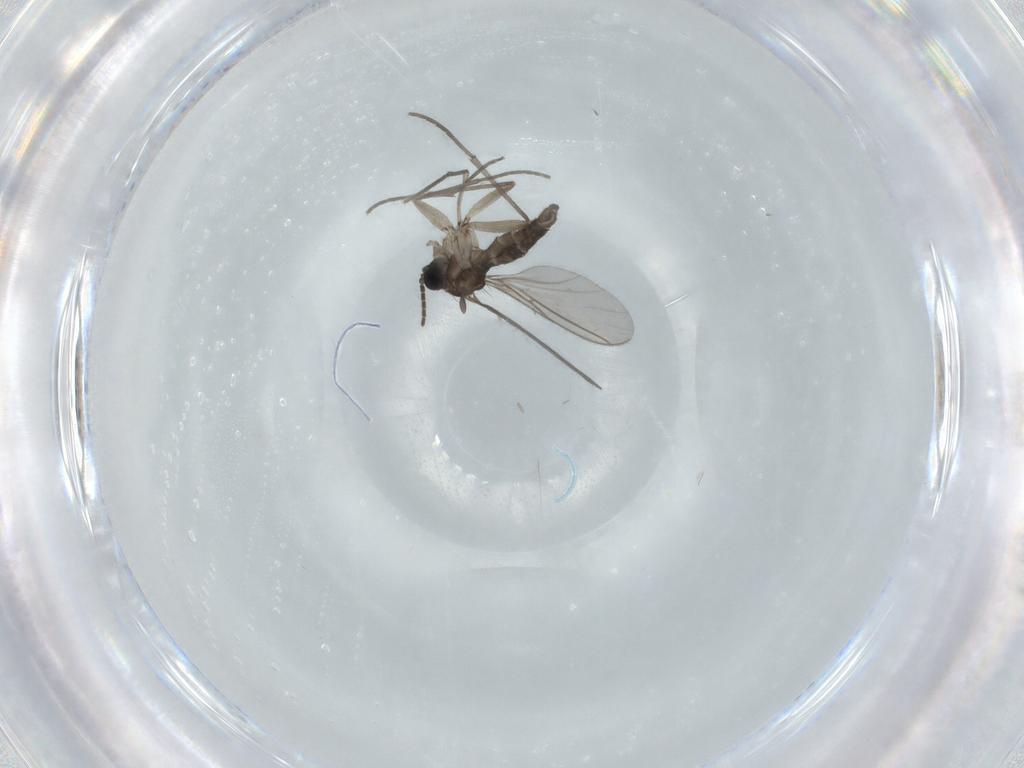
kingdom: Animalia
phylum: Arthropoda
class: Insecta
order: Diptera
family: Sciaridae
